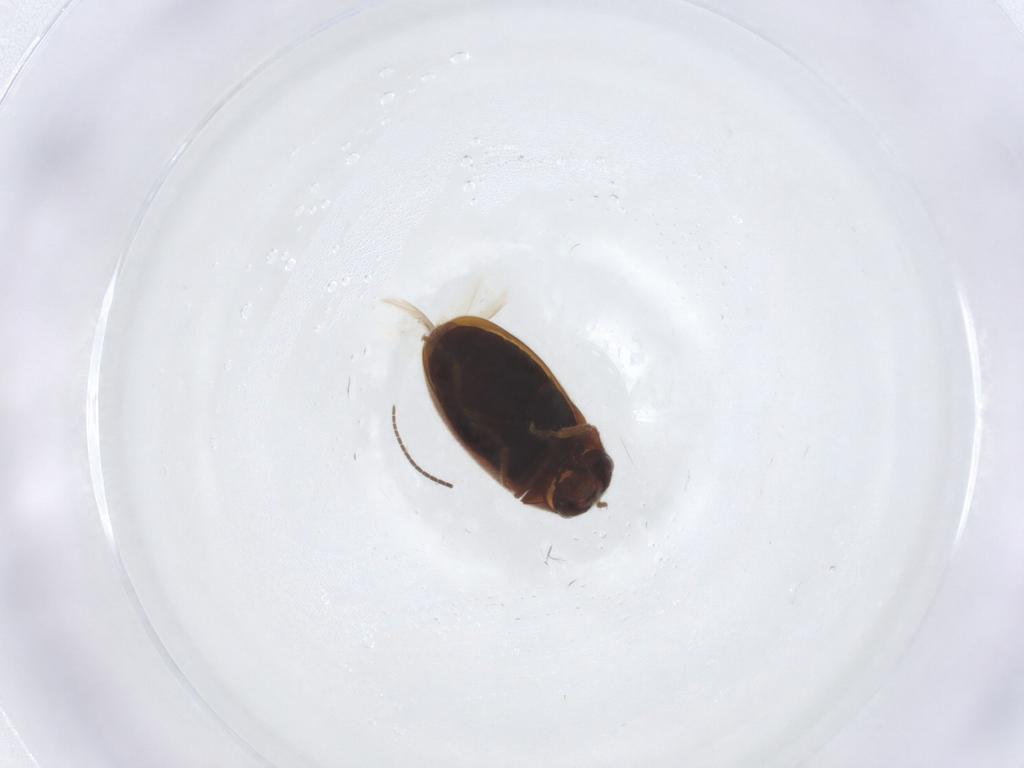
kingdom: Animalia
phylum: Arthropoda
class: Insecta
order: Coleoptera
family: Ptinidae
